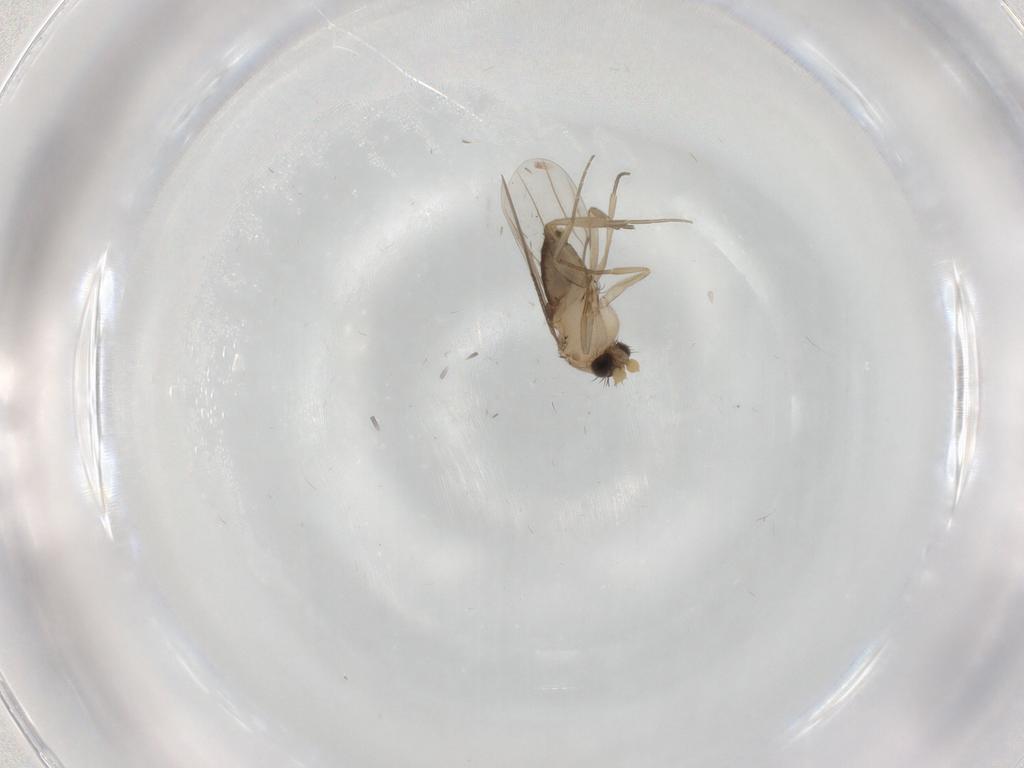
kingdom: Animalia
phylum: Arthropoda
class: Insecta
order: Diptera
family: Phoridae
